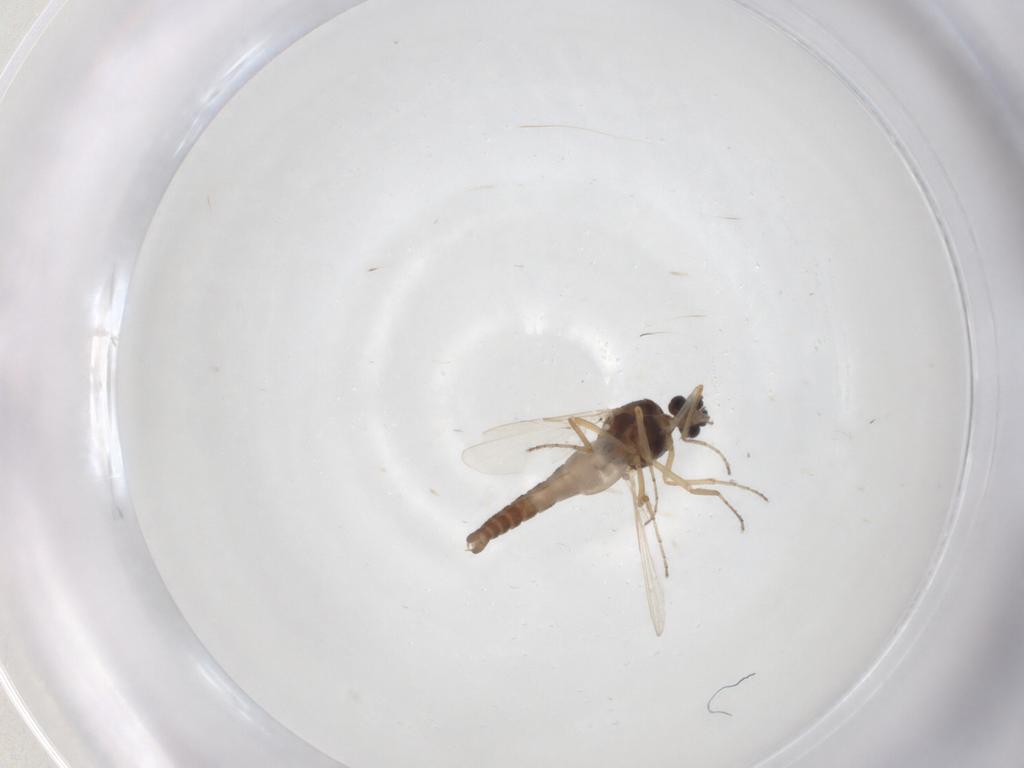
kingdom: Animalia
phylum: Arthropoda
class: Insecta
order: Diptera
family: Ceratopogonidae
